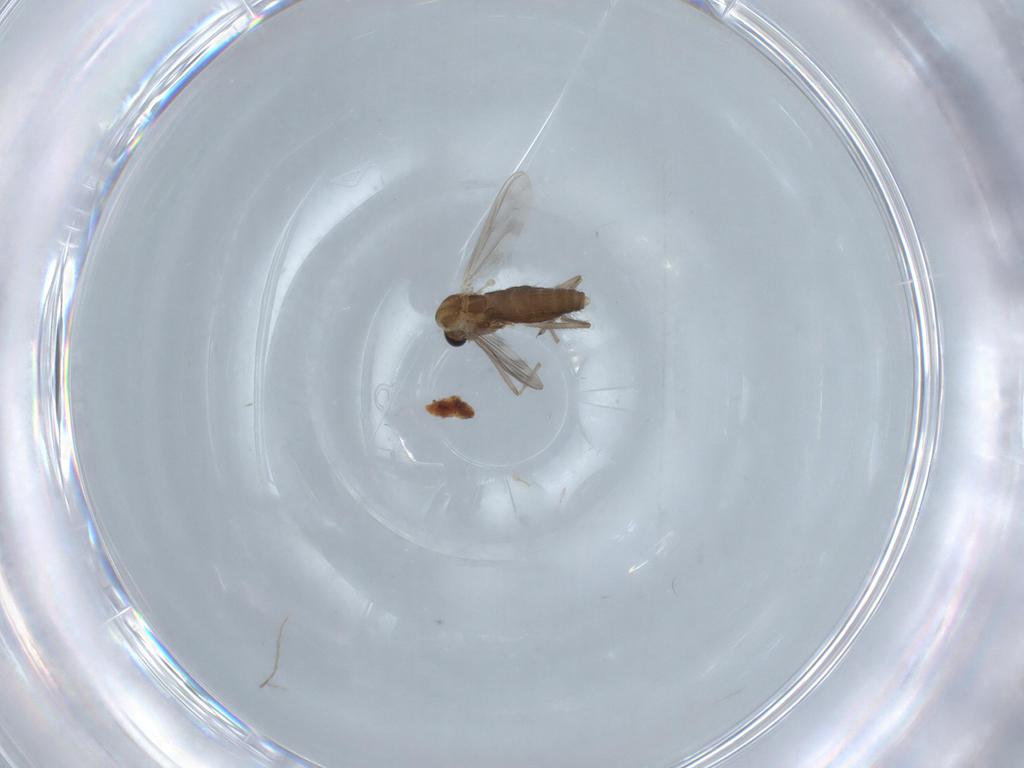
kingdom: Animalia
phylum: Arthropoda
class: Insecta
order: Diptera
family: Chironomidae
